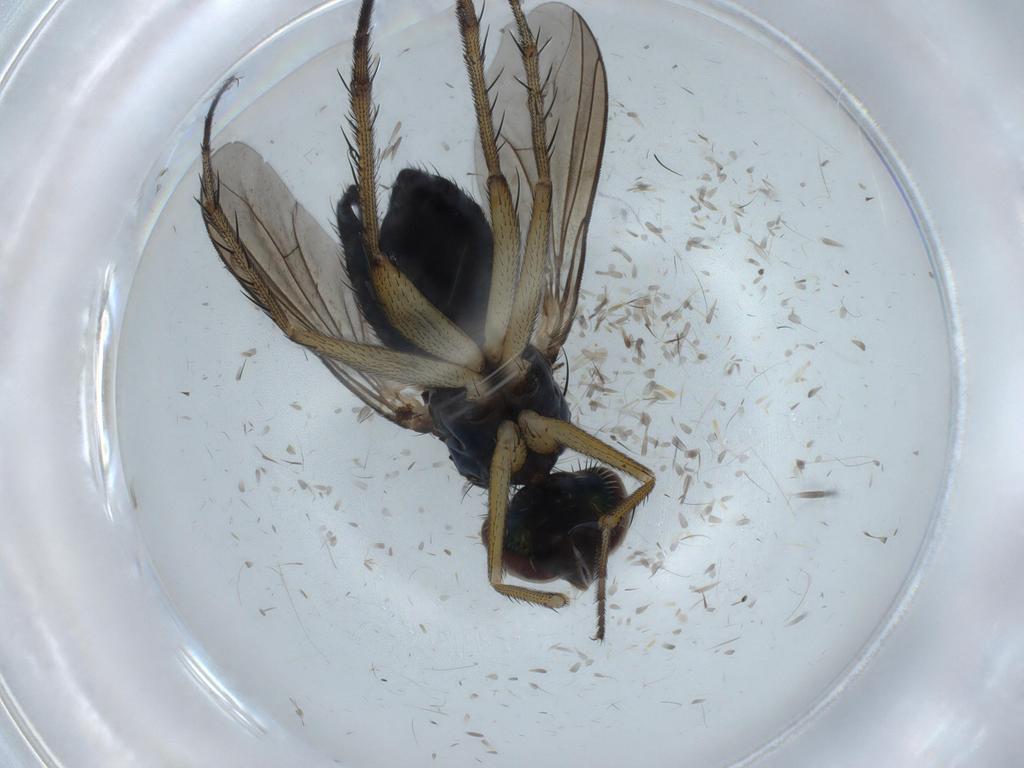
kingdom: Animalia
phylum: Arthropoda
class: Insecta
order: Diptera
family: Dolichopodidae
